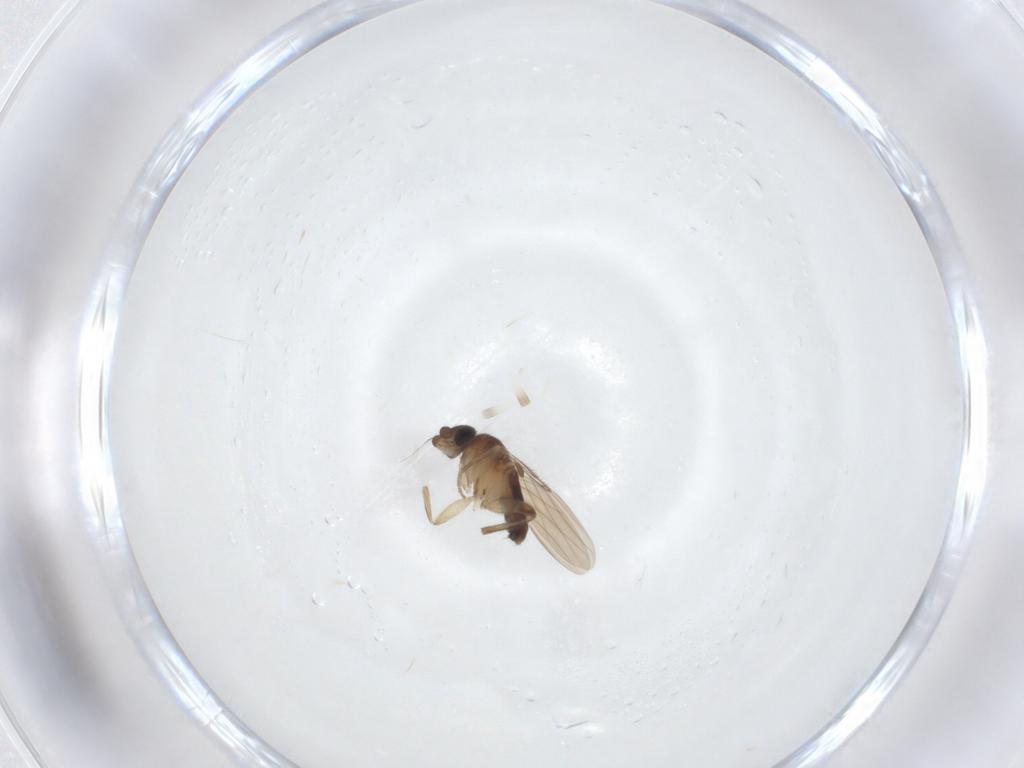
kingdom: Animalia
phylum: Arthropoda
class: Insecta
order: Diptera
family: Phoridae
